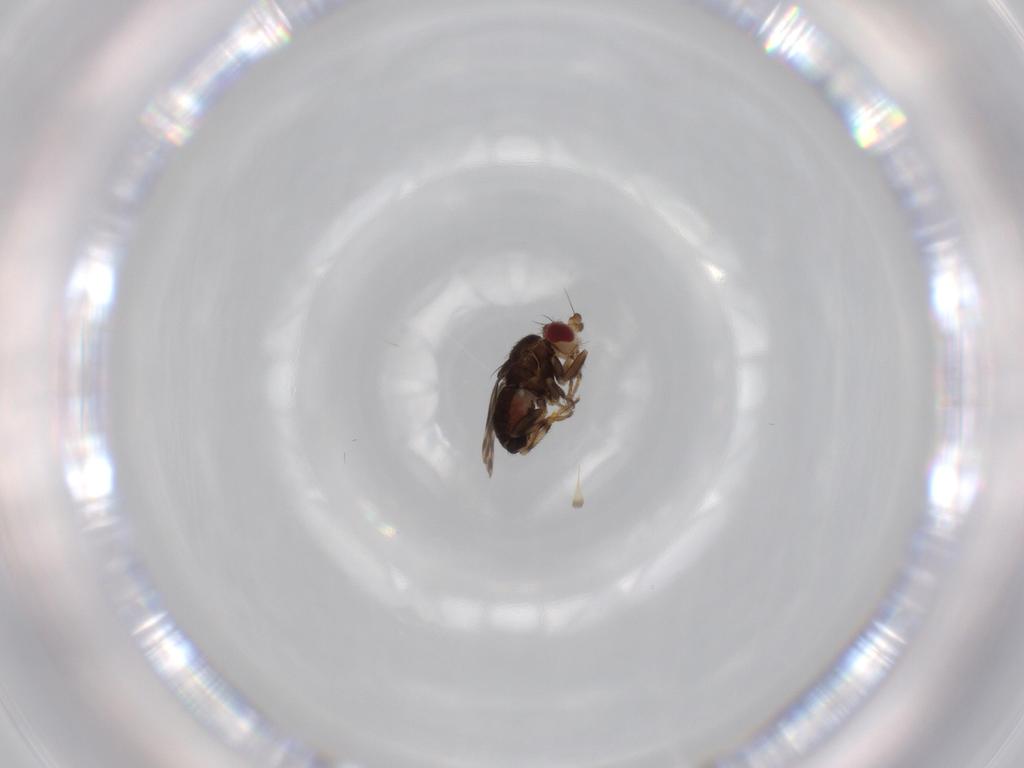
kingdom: Animalia
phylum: Arthropoda
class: Insecta
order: Diptera
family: Sphaeroceridae
